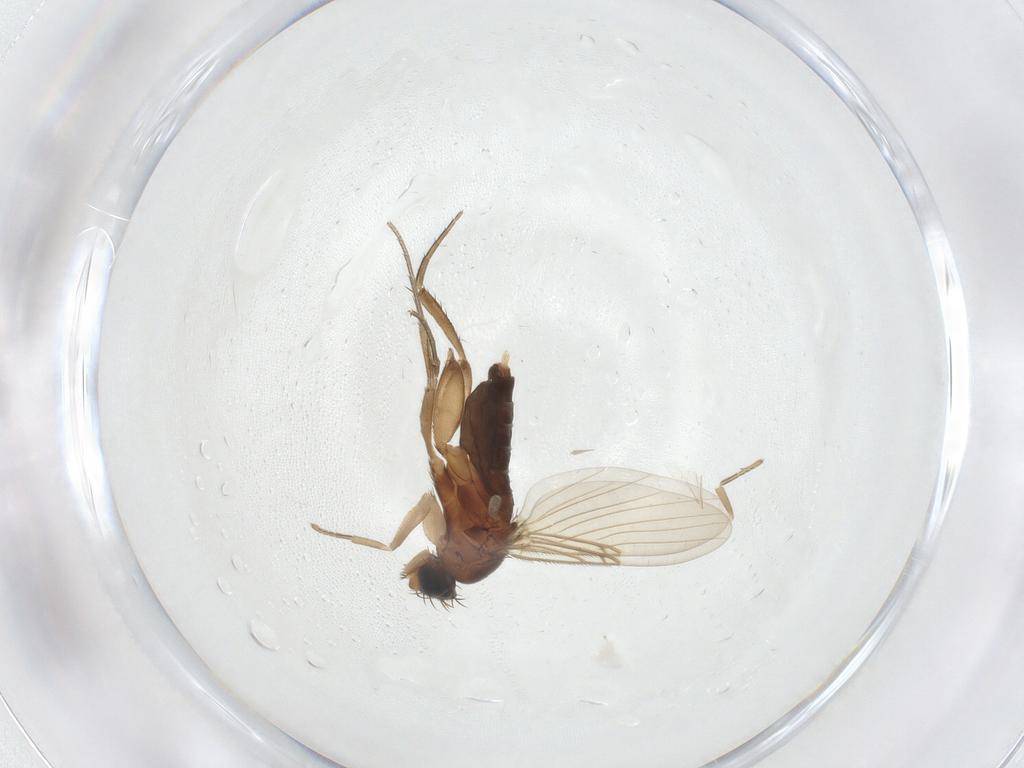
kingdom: Animalia
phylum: Arthropoda
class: Insecta
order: Diptera
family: Phoridae
